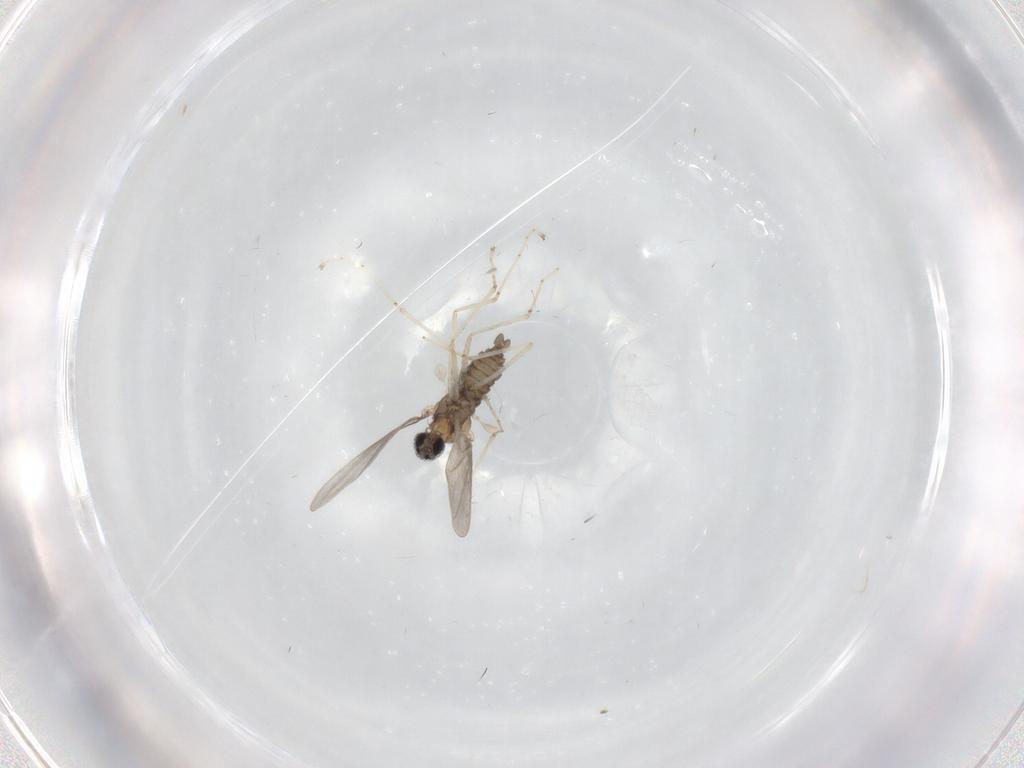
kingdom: Animalia
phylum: Arthropoda
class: Insecta
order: Diptera
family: Cecidomyiidae
